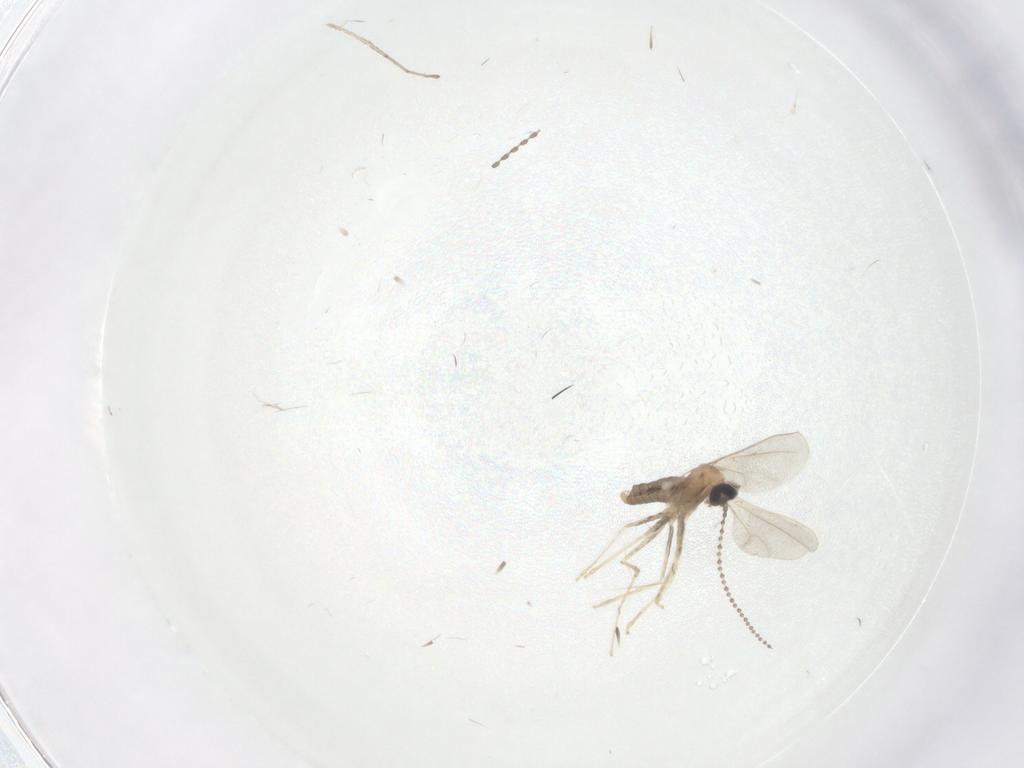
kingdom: Animalia
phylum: Arthropoda
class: Insecta
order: Diptera
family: Cecidomyiidae
